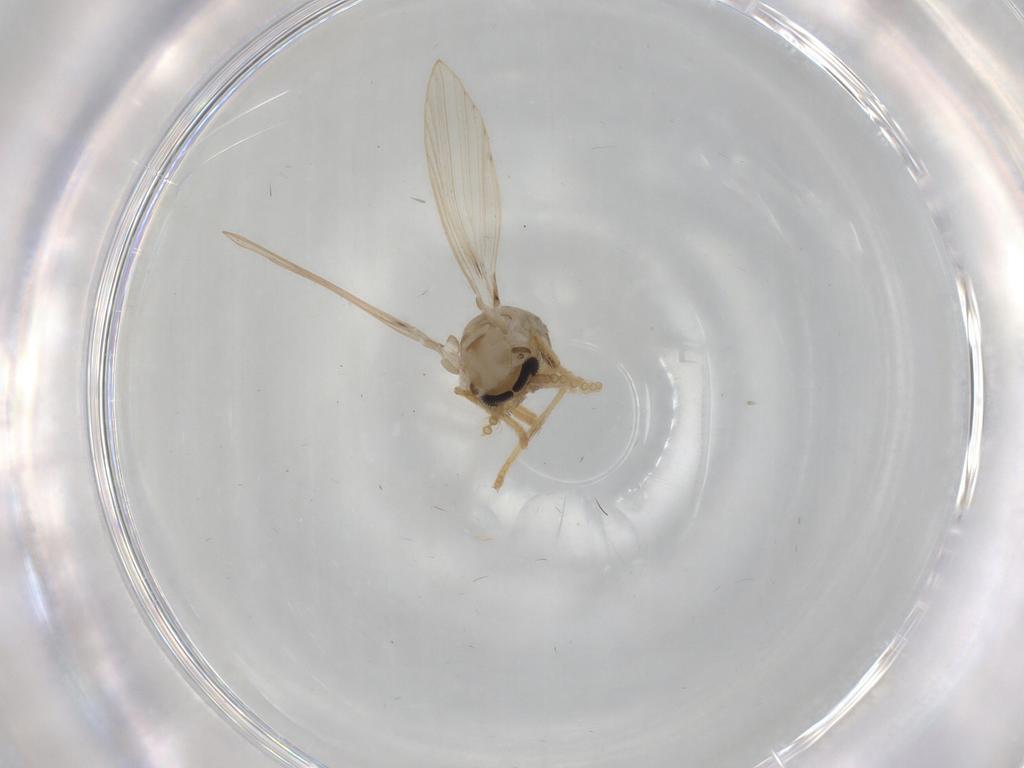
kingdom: Animalia
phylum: Arthropoda
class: Insecta
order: Diptera
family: Psychodidae
